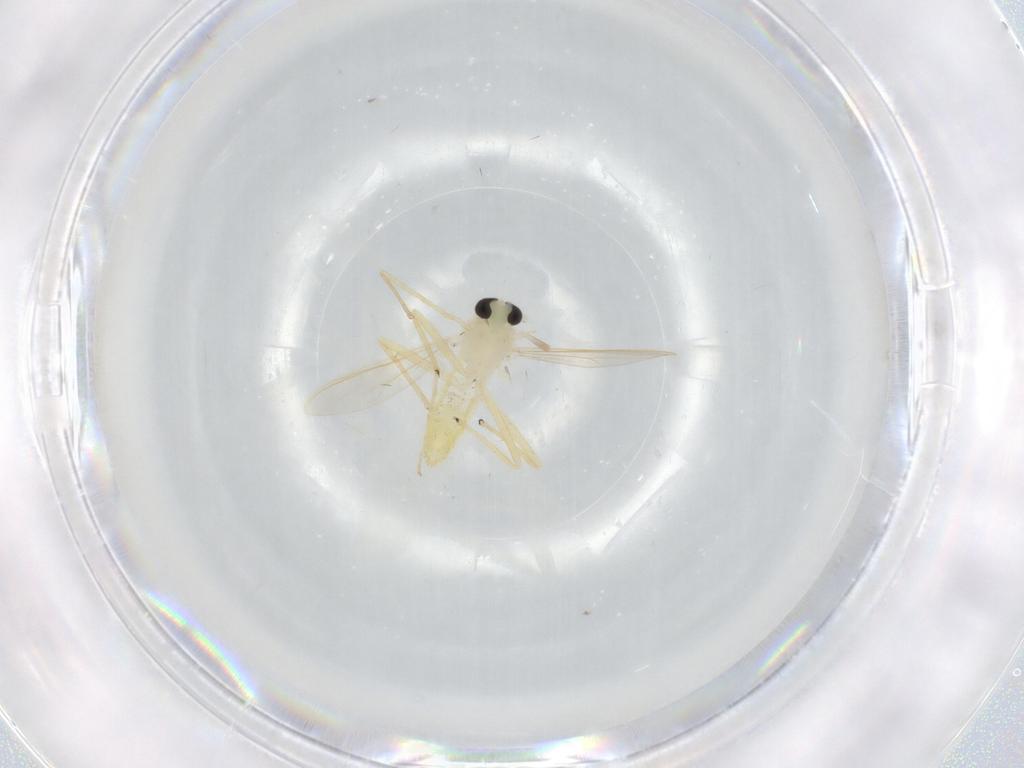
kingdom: Animalia
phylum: Arthropoda
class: Insecta
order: Diptera
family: Chironomidae
